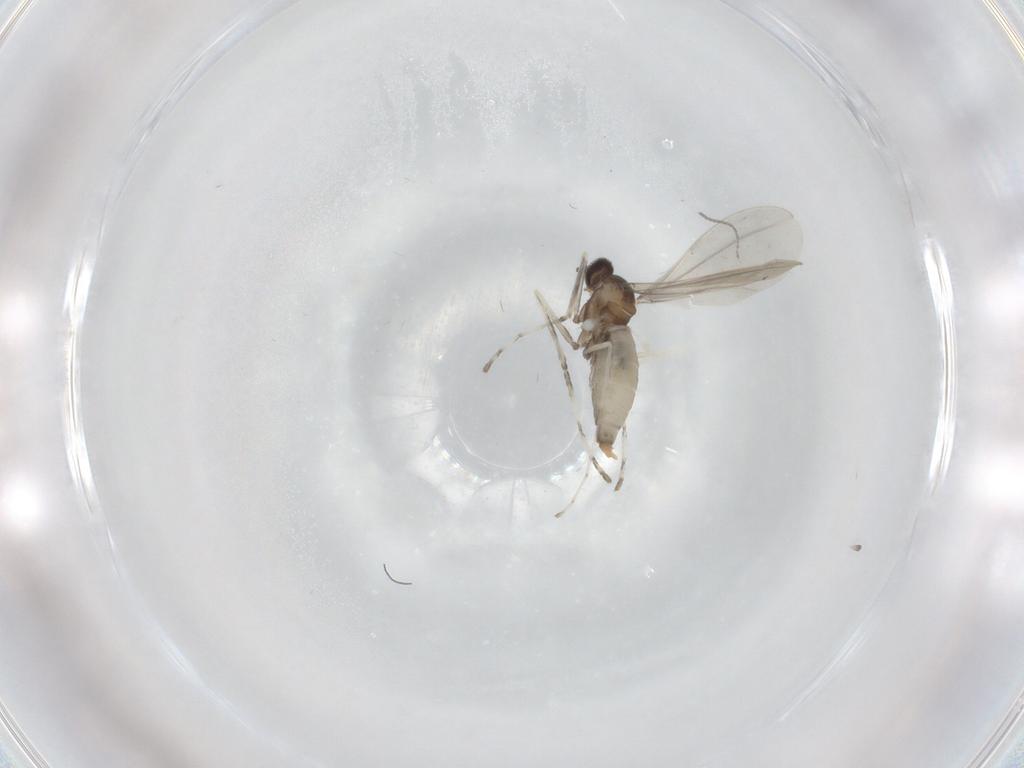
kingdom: Animalia
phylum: Arthropoda
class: Insecta
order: Diptera
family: Cecidomyiidae
